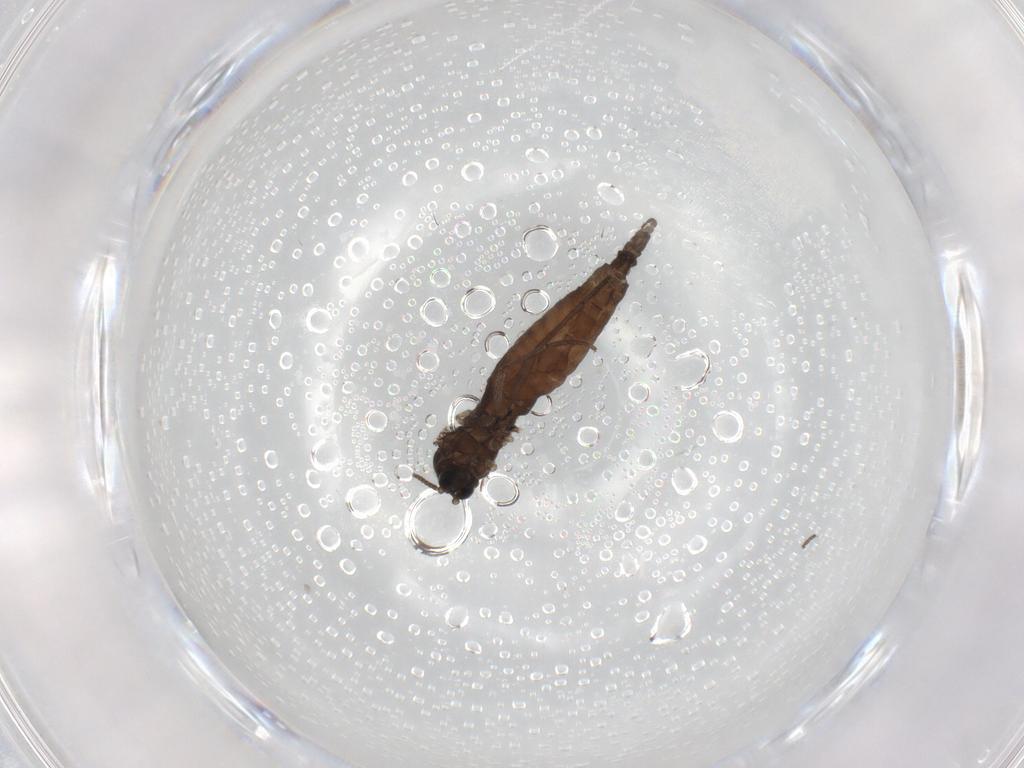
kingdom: Animalia
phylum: Arthropoda
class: Insecta
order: Diptera
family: Sciaridae
